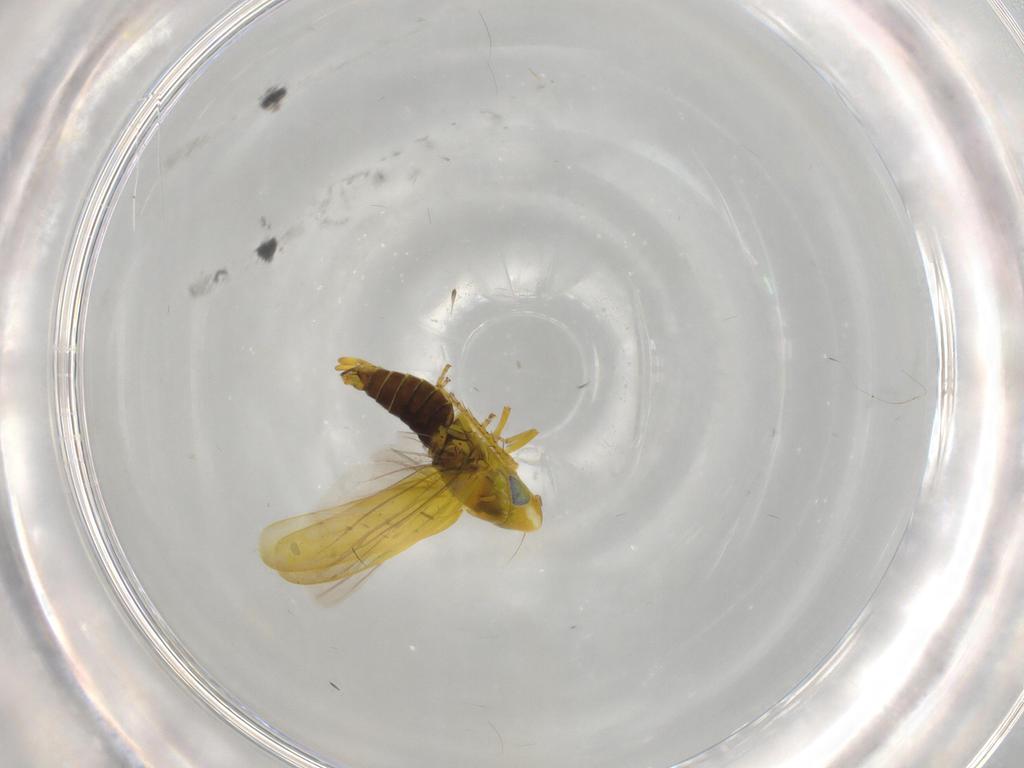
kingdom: Animalia
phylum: Arthropoda
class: Insecta
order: Hemiptera
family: Cicadellidae
